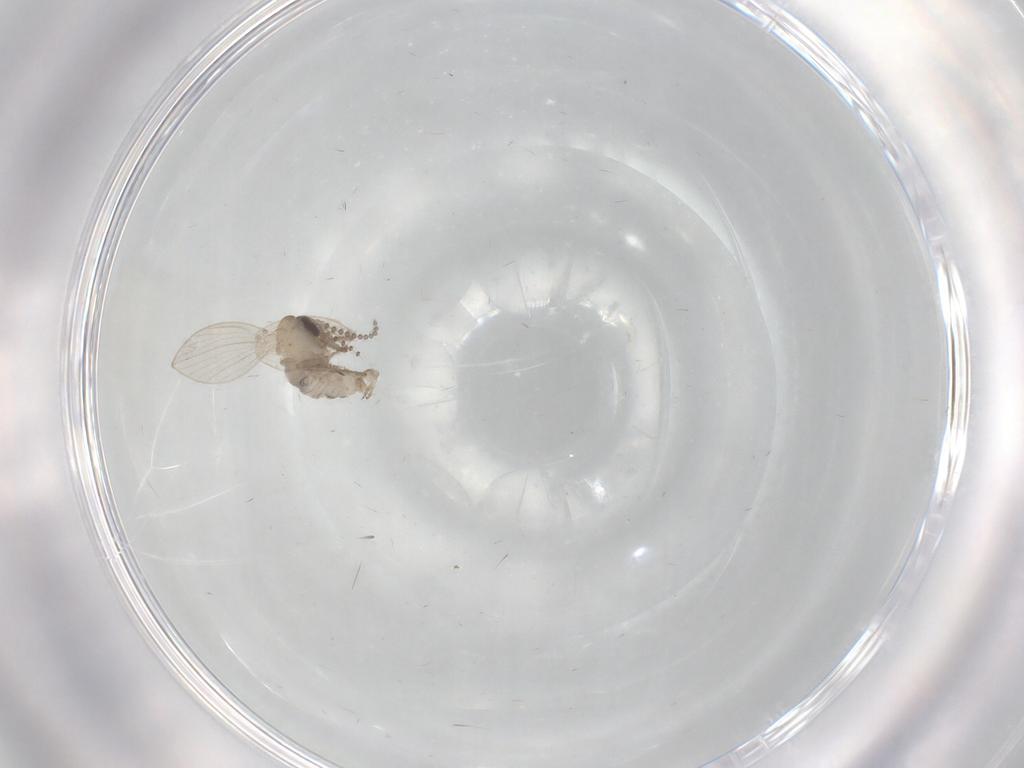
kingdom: Animalia
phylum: Arthropoda
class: Insecta
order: Diptera
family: Psychodidae
